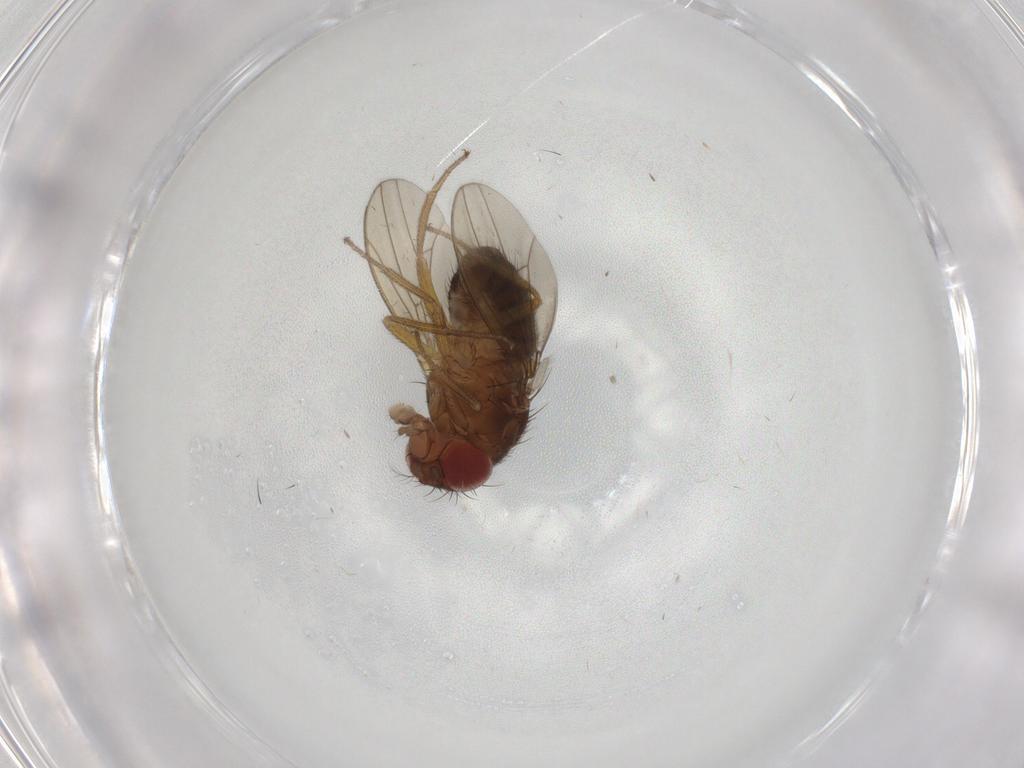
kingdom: Animalia
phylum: Arthropoda
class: Insecta
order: Diptera
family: Drosophilidae
